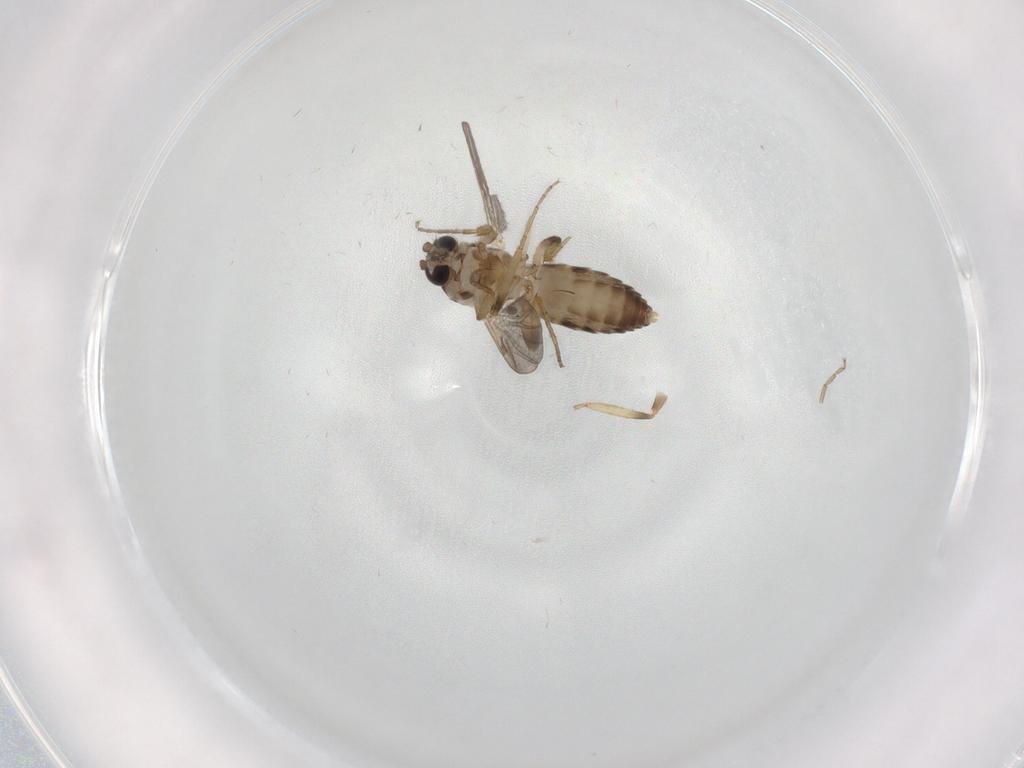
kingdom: Animalia
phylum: Arthropoda
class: Insecta
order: Diptera
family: Ceratopogonidae
